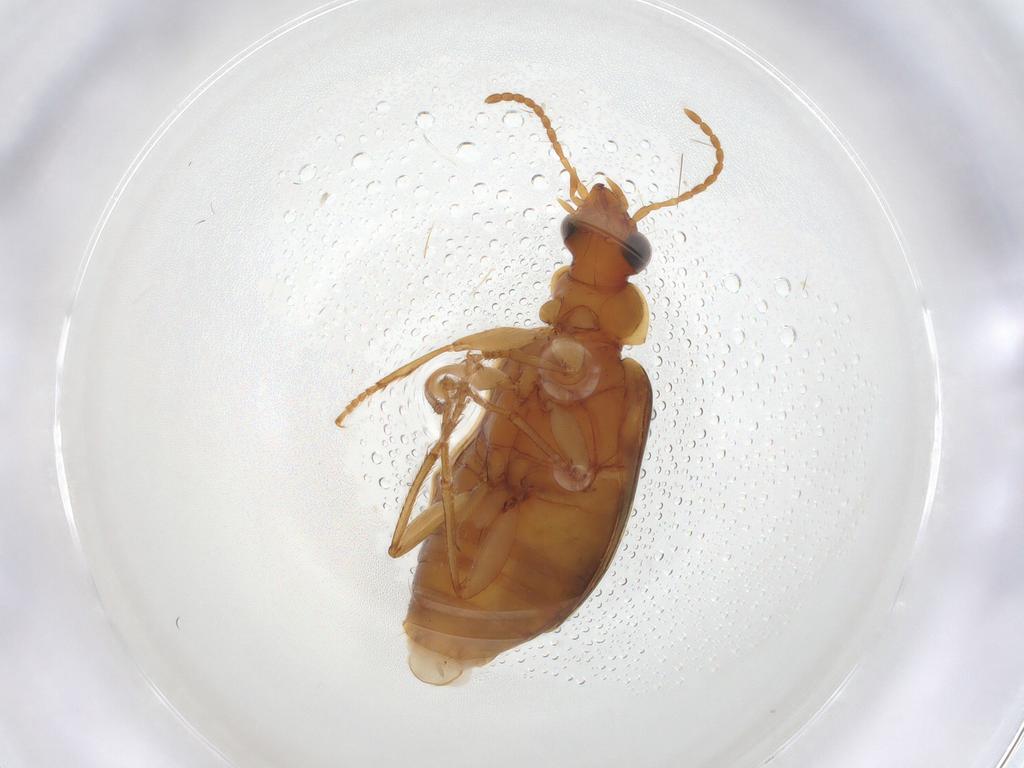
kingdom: Animalia
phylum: Arthropoda
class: Insecta
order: Coleoptera
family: Carabidae
